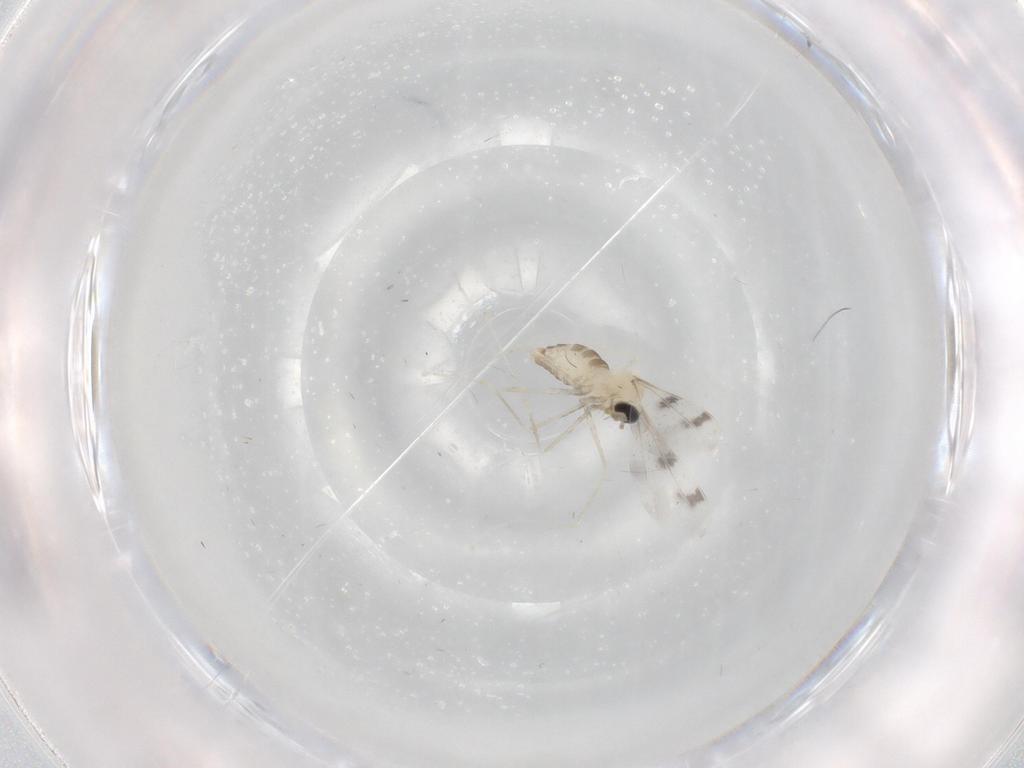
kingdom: Animalia
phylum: Arthropoda
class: Insecta
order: Diptera
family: Cecidomyiidae
